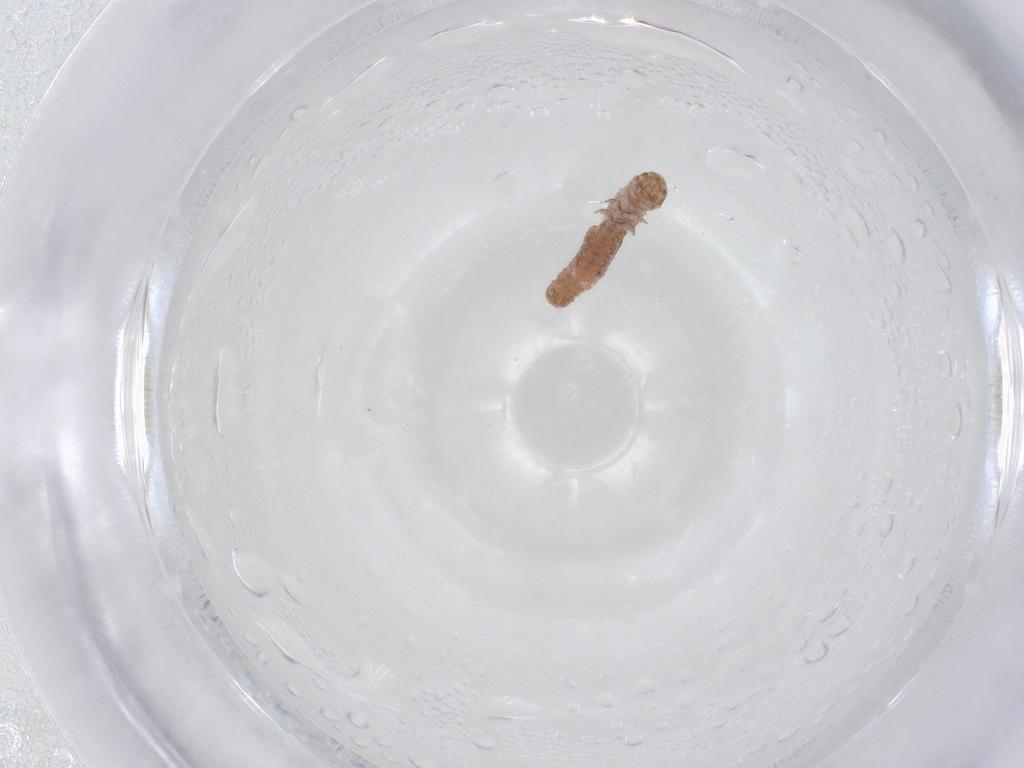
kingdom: Animalia
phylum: Arthropoda
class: Insecta
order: Lepidoptera
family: Gelechiidae
